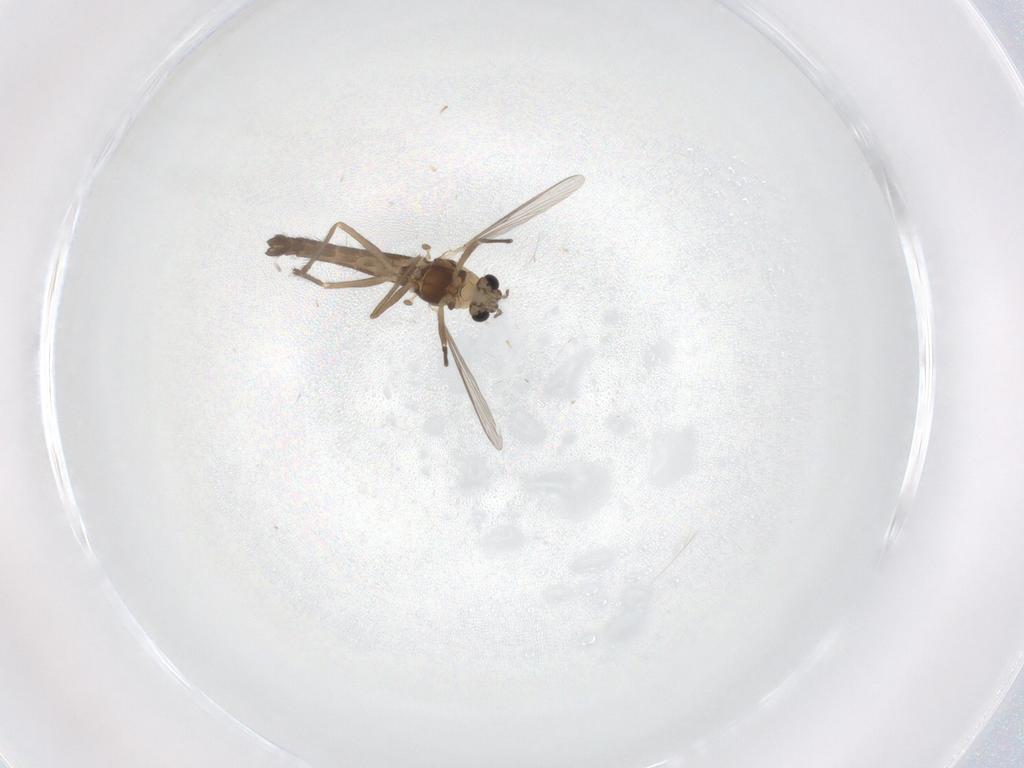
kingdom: Animalia
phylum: Arthropoda
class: Insecta
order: Diptera
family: Chironomidae
